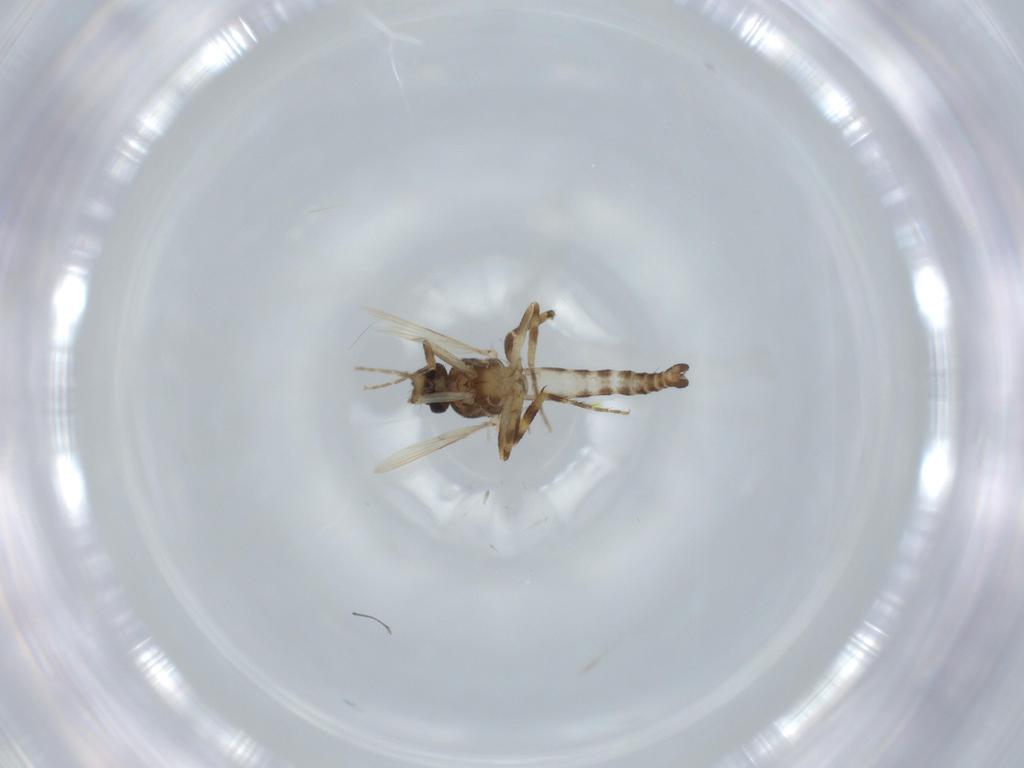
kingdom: Animalia
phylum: Arthropoda
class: Insecta
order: Diptera
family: Ceratopogonidae
